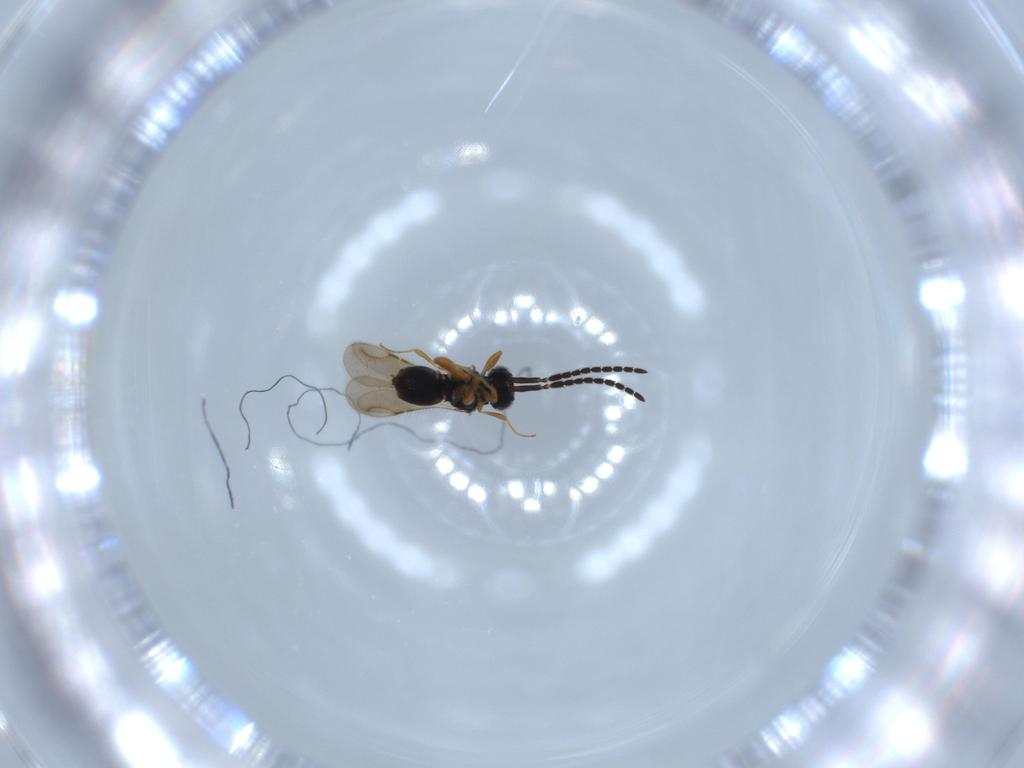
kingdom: Animalia
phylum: Arthropoda
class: Insecta
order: Hymenoptera
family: Ceraphronidae
